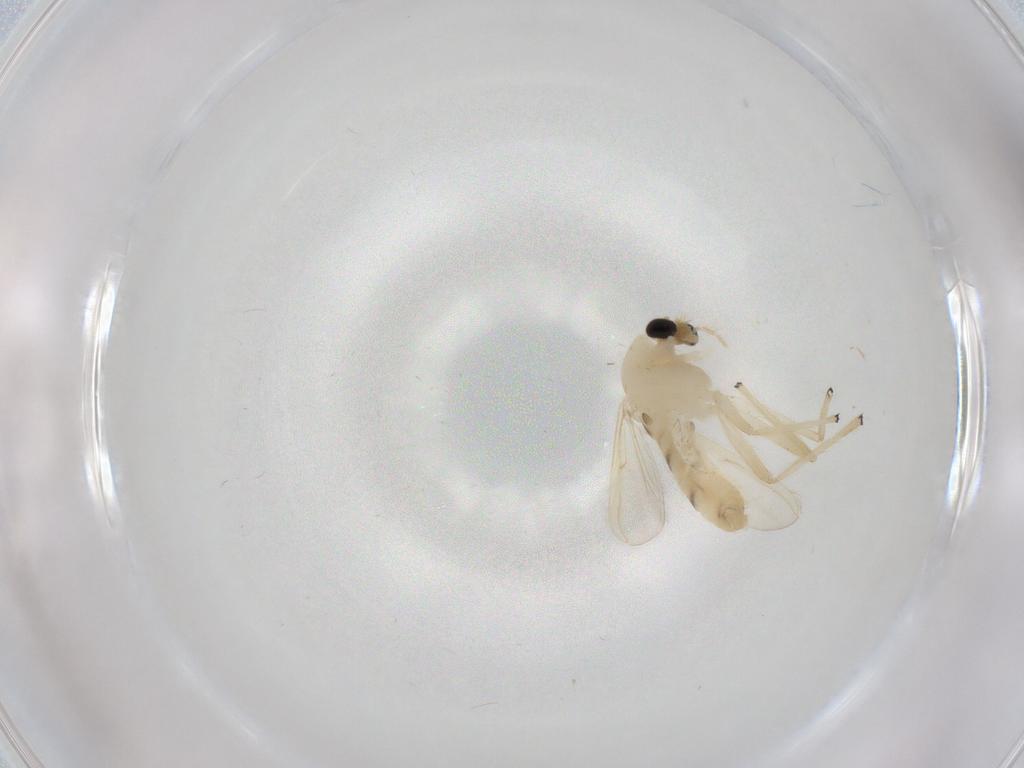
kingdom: Animalia
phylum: Arthropoda
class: Insecta
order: Diptera
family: Chironomidae
